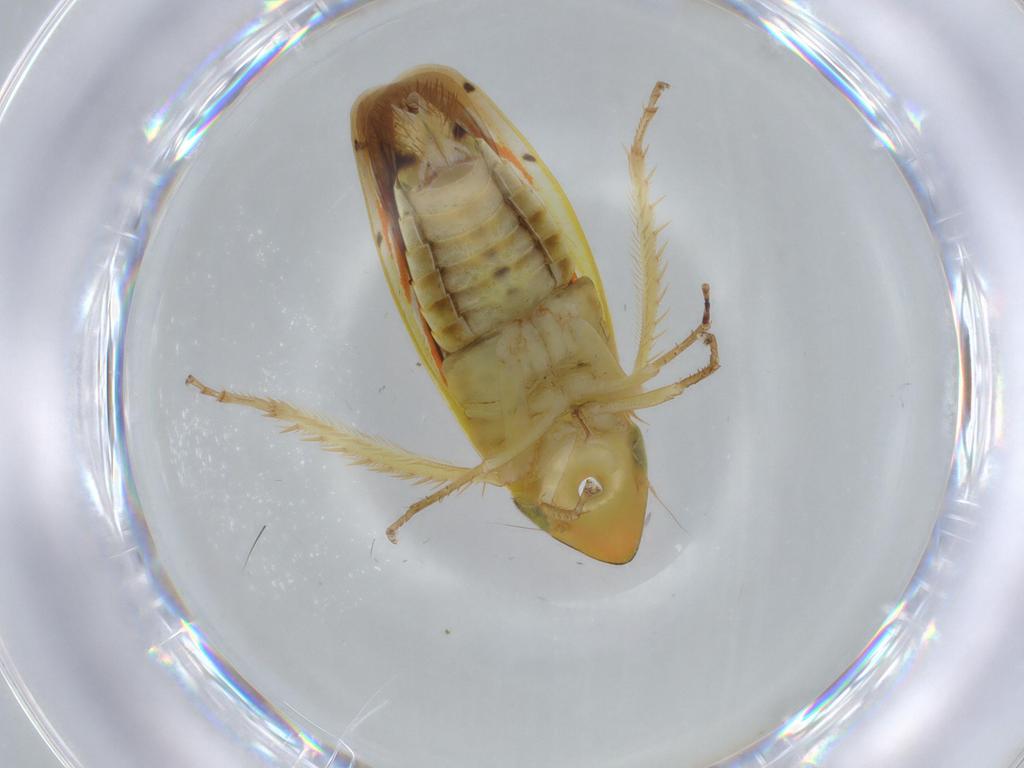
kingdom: Animalia
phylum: Arthropoda
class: Insecta
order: Hemiptera
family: Cicadellidae
